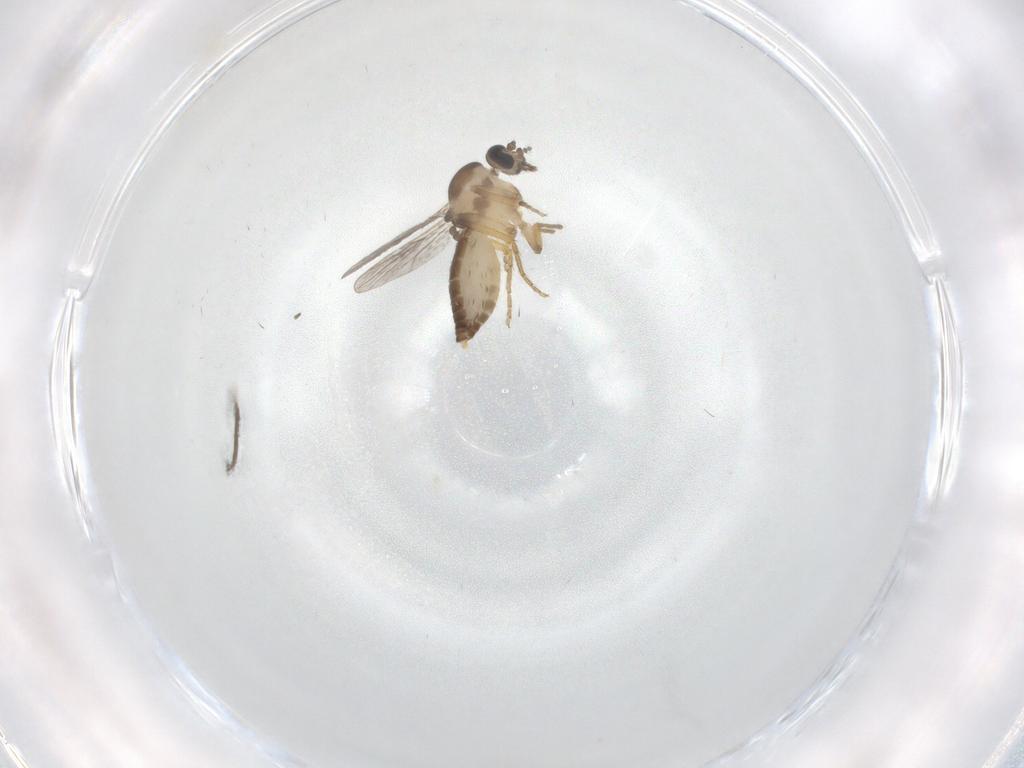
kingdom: Animalia
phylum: Arthropoda
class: Insecta
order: Diptera
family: Ceratopogonidae
